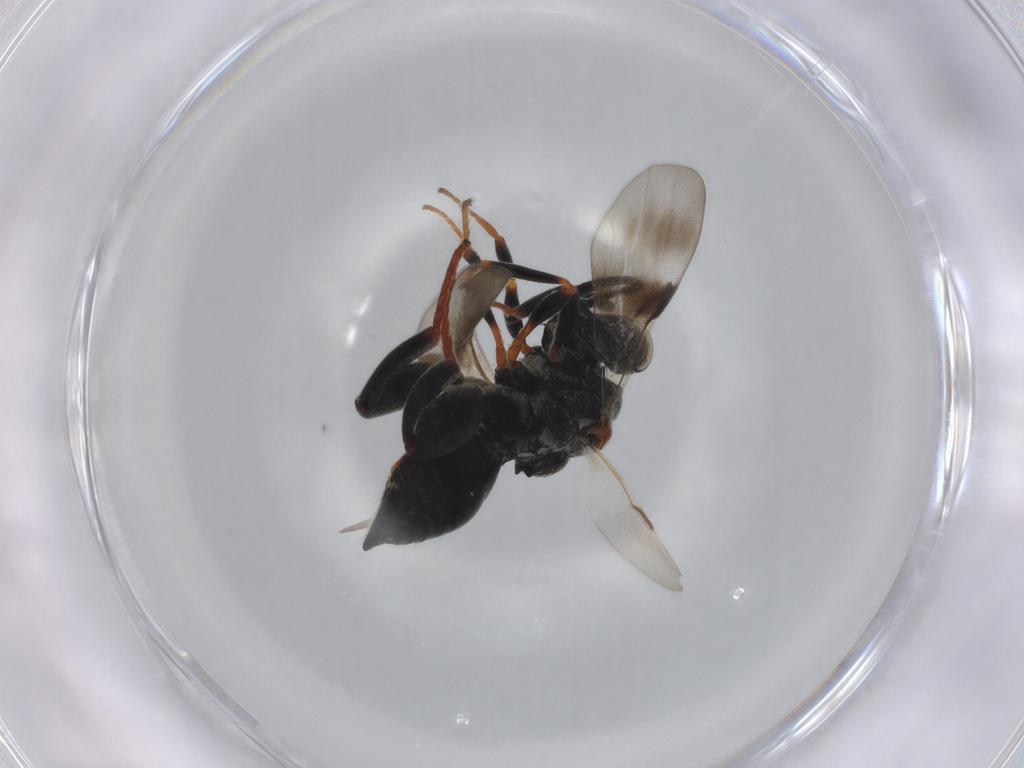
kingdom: Animalia
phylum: Arthropoda
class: Insecta
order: Hymenoptera
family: Chalcididae
